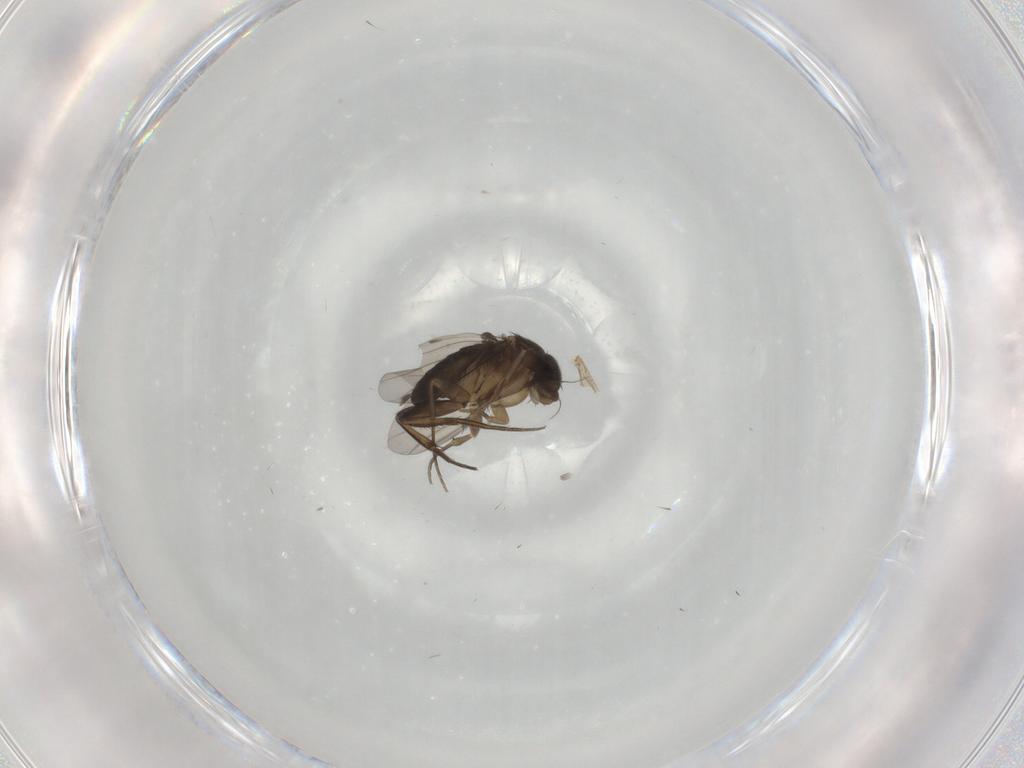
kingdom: Animalia
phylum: Arthropoda
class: Insecta
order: Diptera
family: Phoridae
